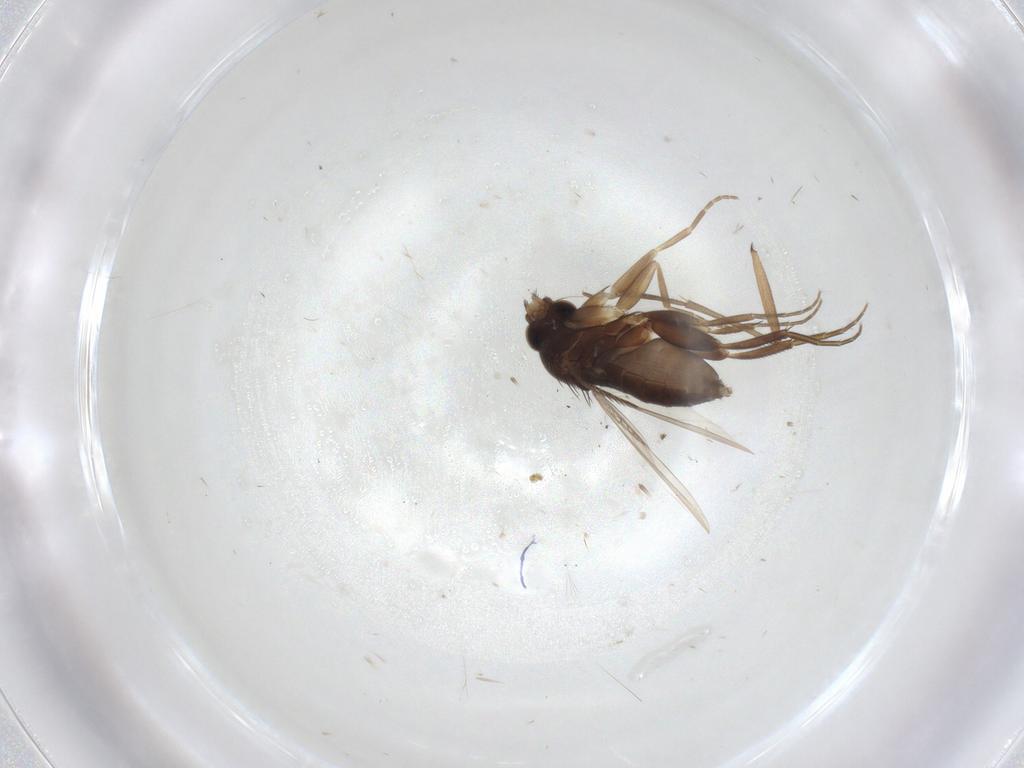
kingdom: Animalia
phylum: Arthropoda
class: Insecta
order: Diptera
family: Phoridae
